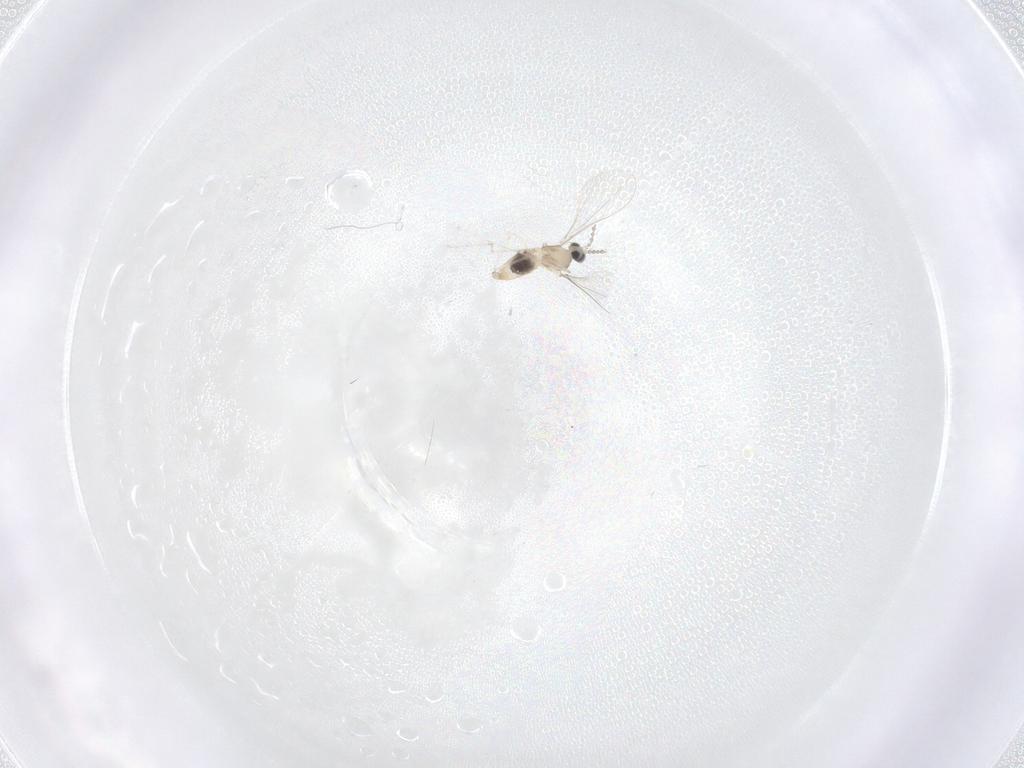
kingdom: Animalia
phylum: Arthropoda
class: Insecta
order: Diptera
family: Cecidomyiidae
